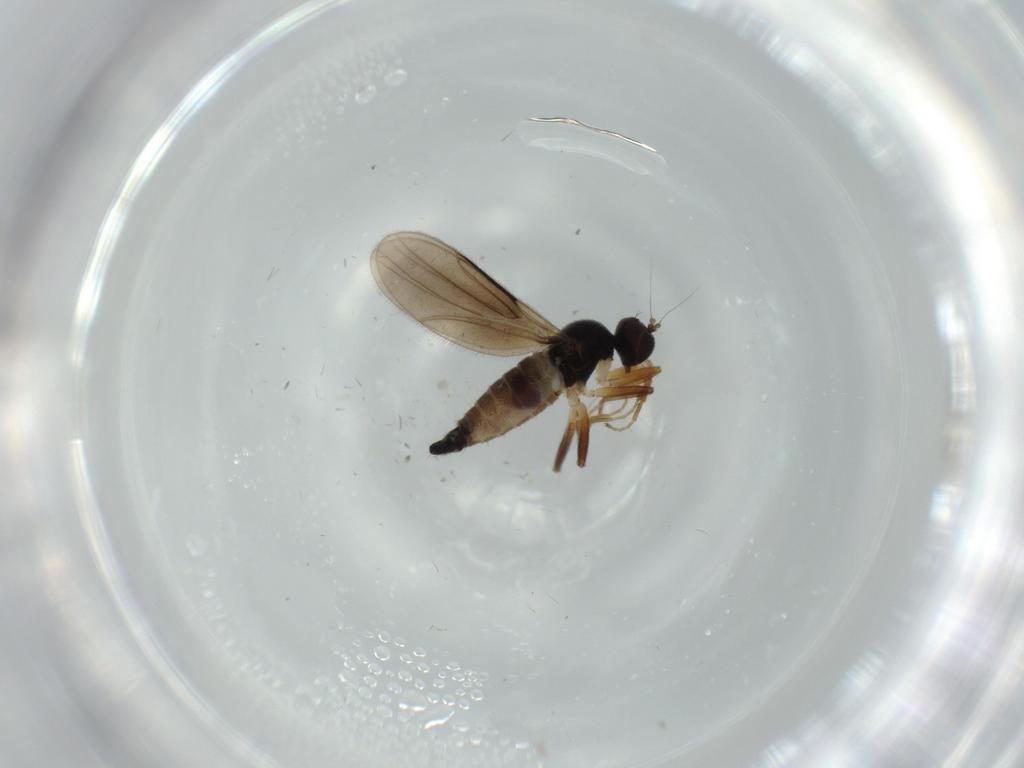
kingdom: Animalia
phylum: Arthropoda
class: Insecta
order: Diptera
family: Hybotidae
